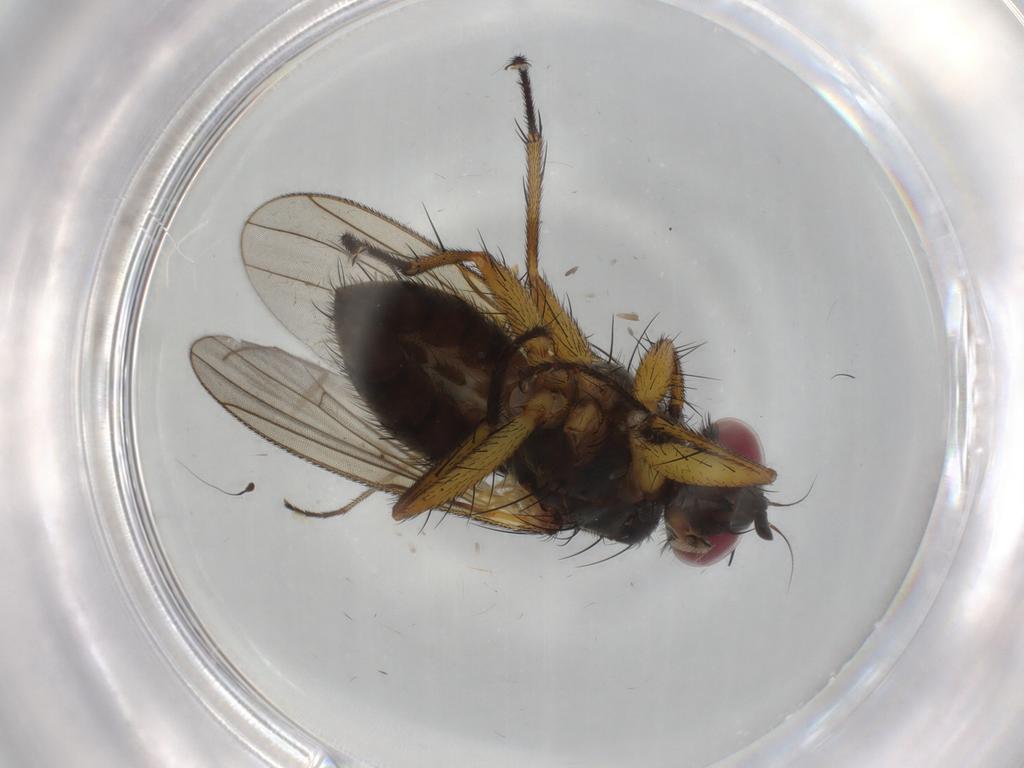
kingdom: Animalia
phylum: Arthropoda
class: Insecta
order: Diptera
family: Muscidae
